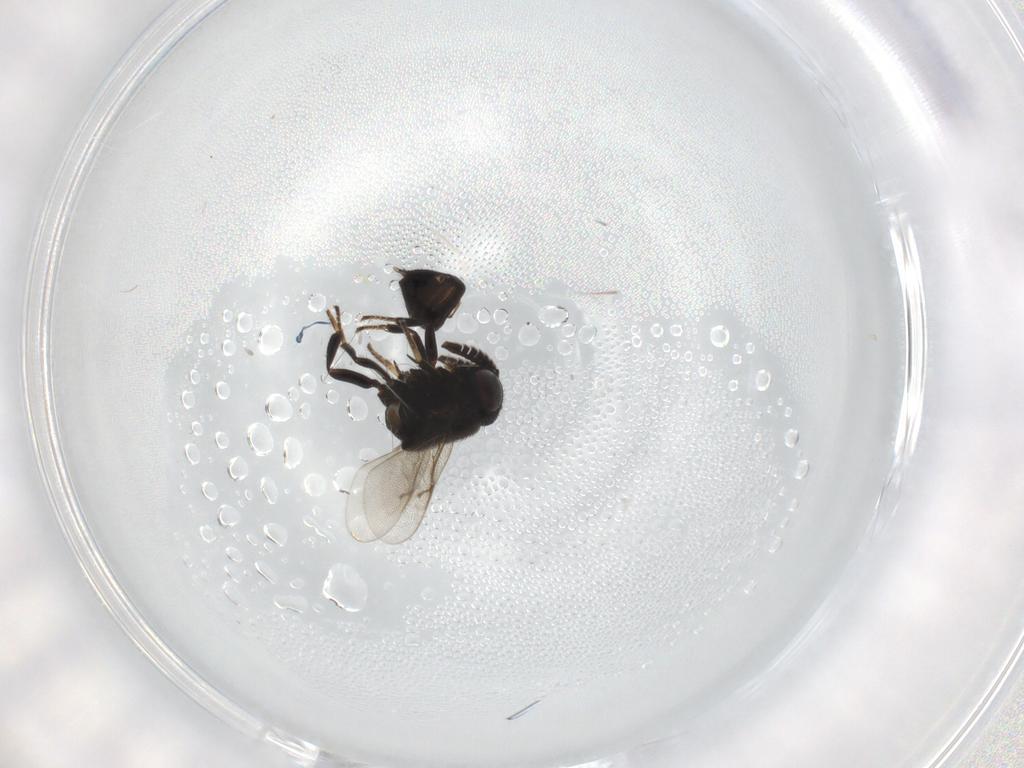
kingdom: Animalia
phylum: Arthropoda
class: Insecta
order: Hymenoptera
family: Encyrtidae
